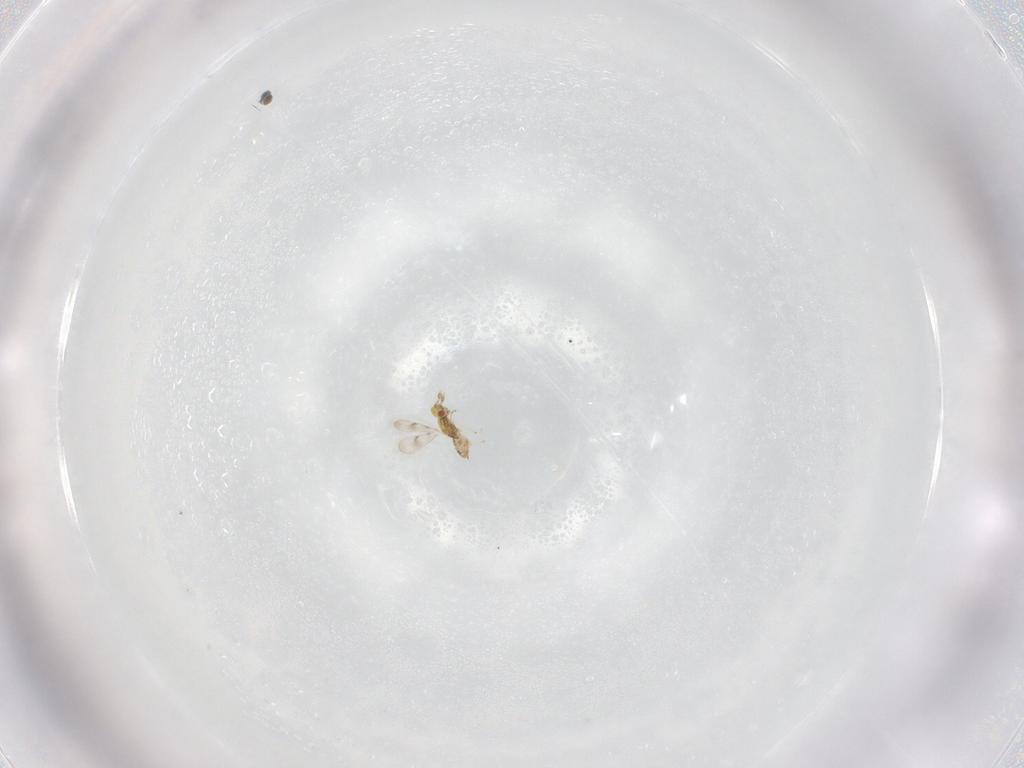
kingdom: Animalia
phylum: Arthropoda
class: Insecta
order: Hymenoptera
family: Eulophidae
